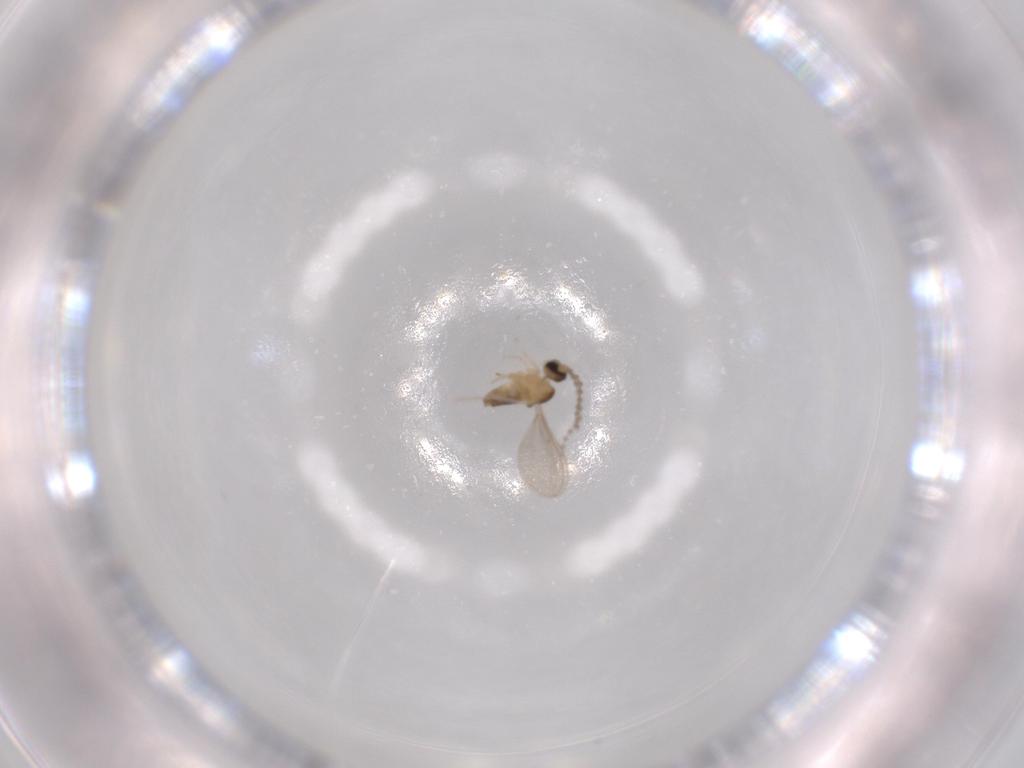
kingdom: Animalia
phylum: Arthropoda
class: Insecta
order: Diptera
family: Cecidomyiidae
